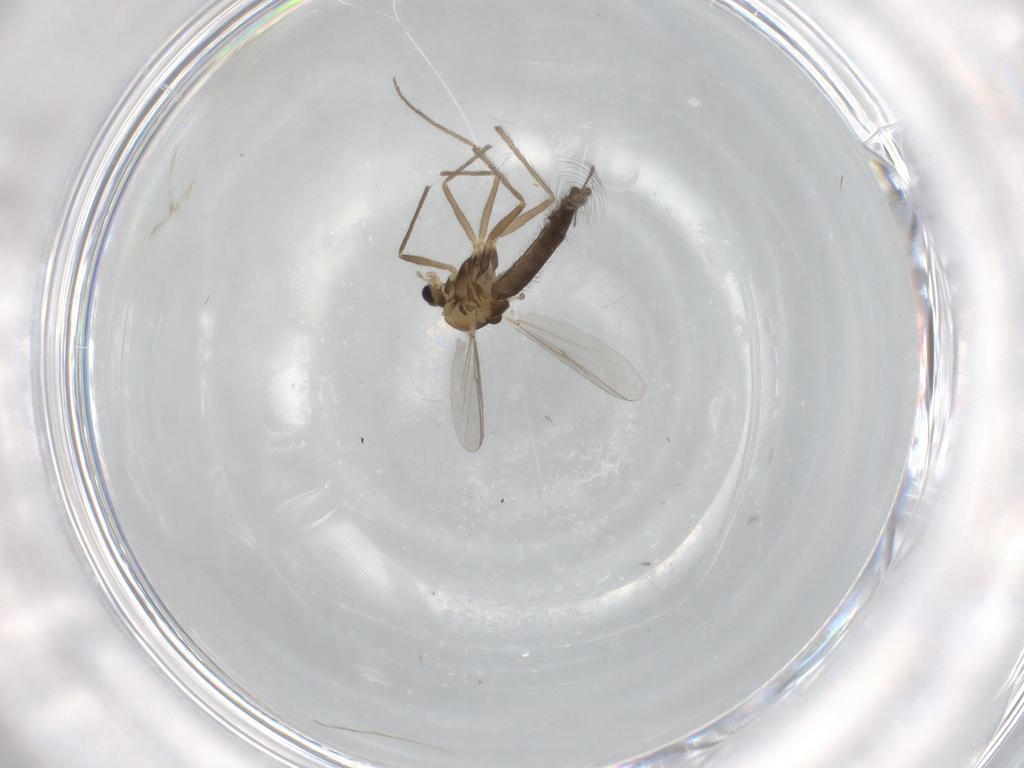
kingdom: Animalia
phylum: Arthropoda
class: Insecta
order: Diptera
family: Chironomidae
